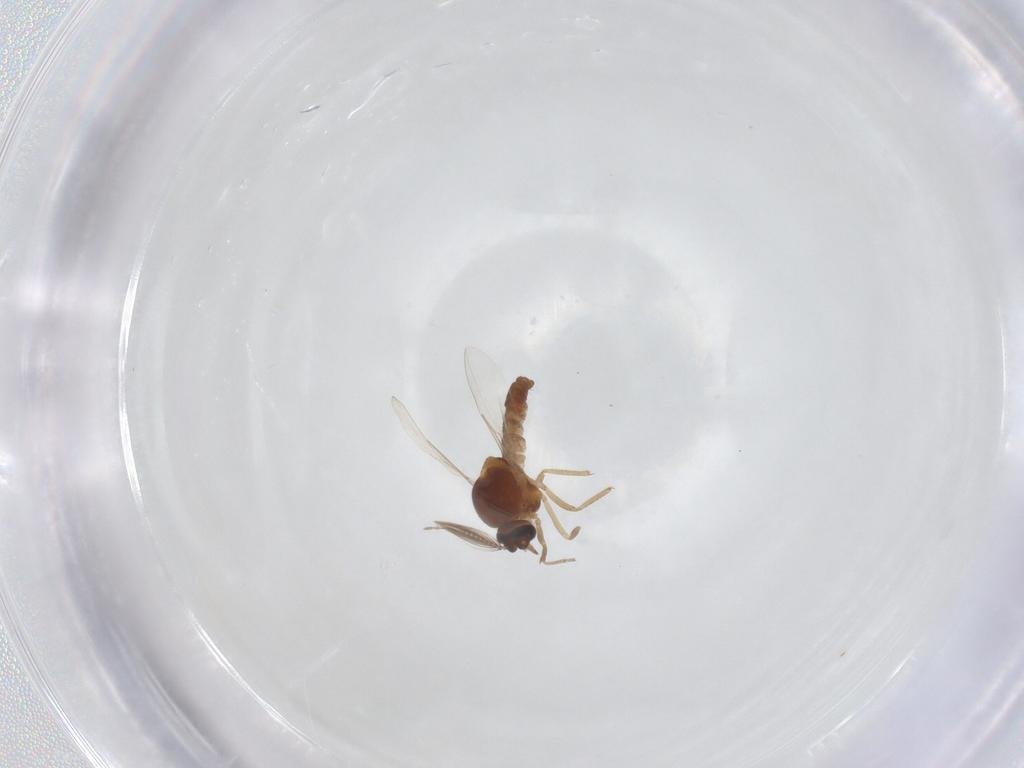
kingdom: Animalia
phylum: Arthropoda
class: Insecta
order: Diptera
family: Ceratopogonidae
